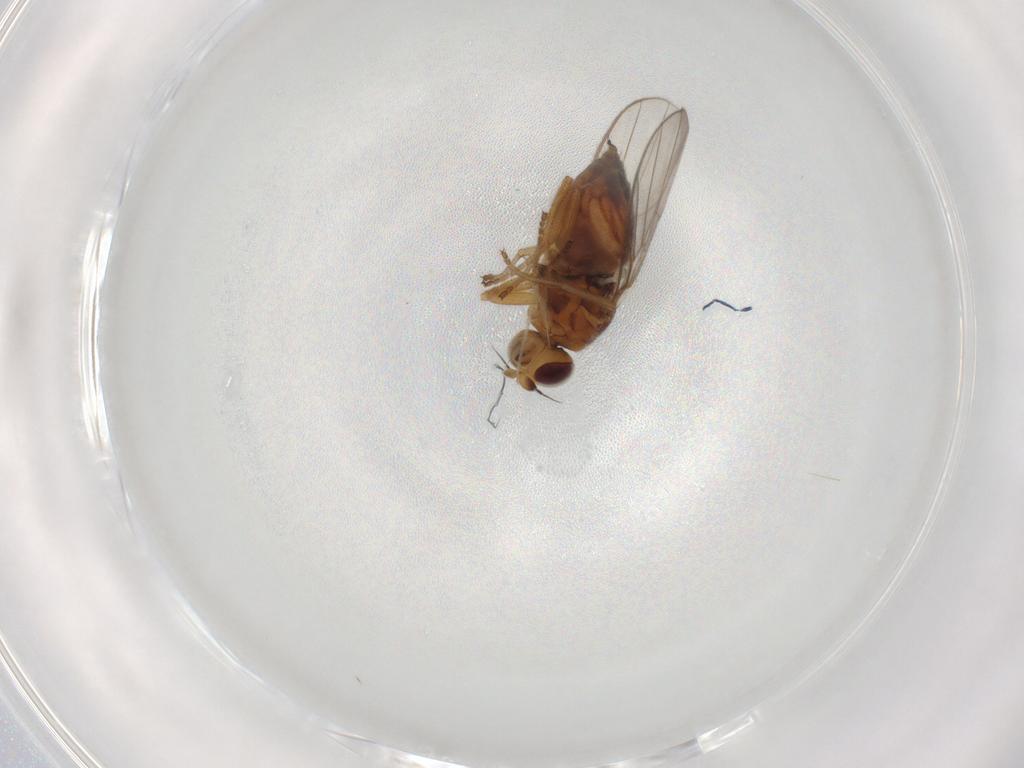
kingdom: Animalia
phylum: Arthropoda
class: Insecta
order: Diptera
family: Chloropidae
